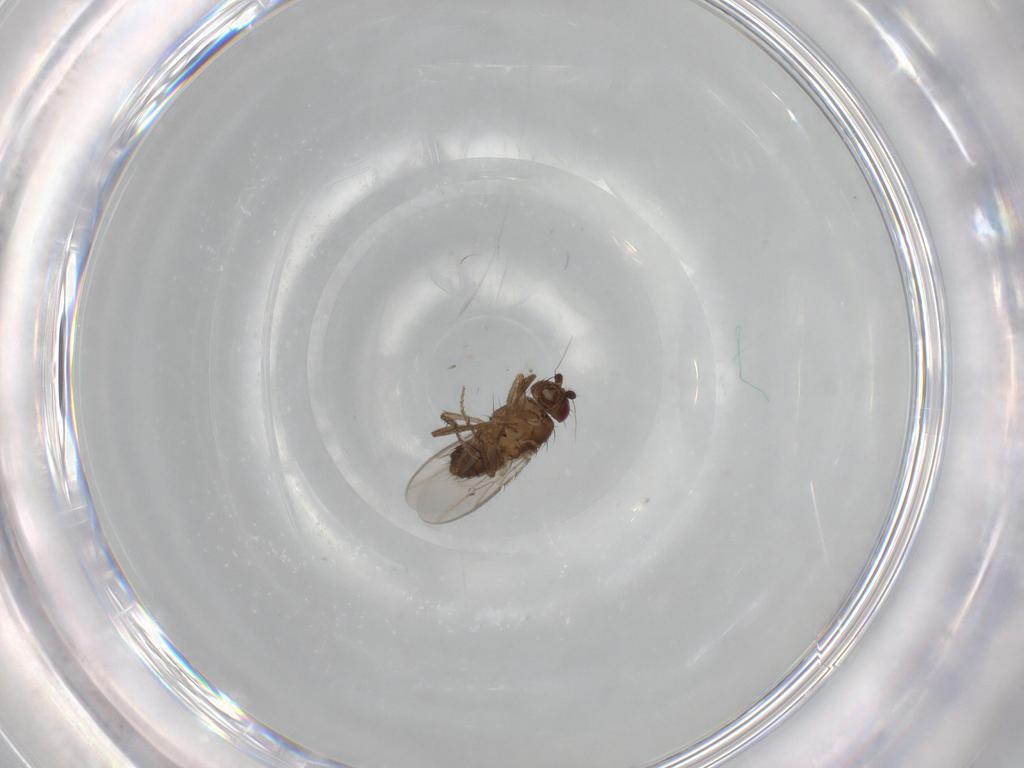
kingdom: Animalia
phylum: Arthropoda
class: Insecta
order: Diptera
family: Sphaeroceridae
